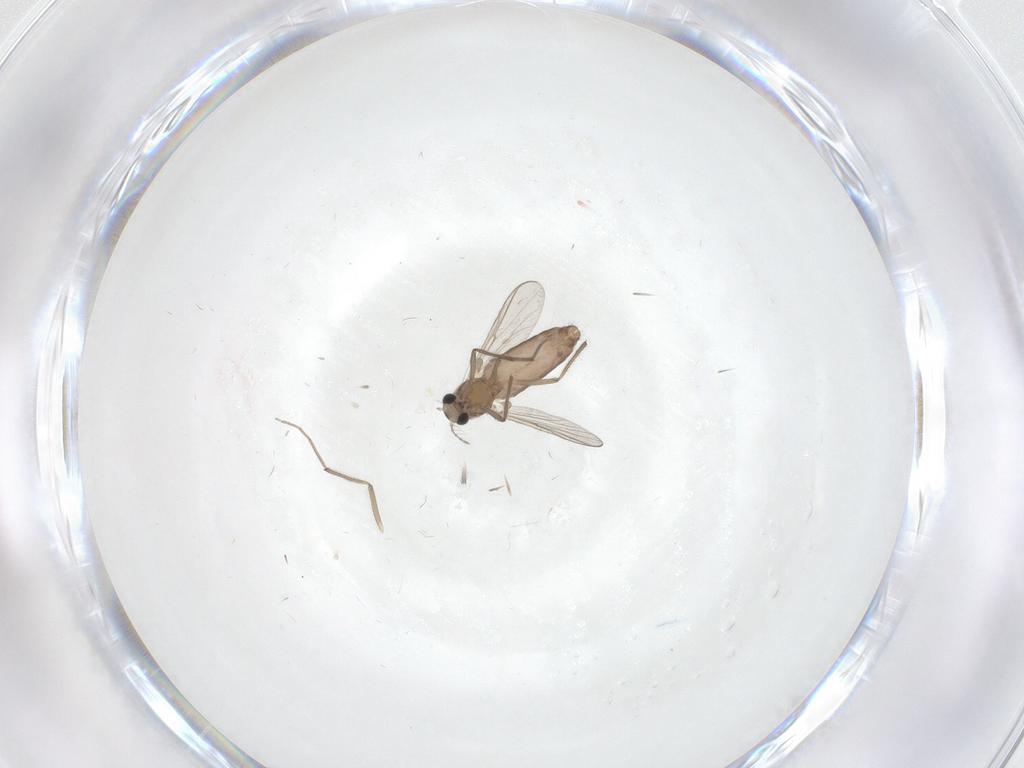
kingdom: Animalia
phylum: Arthropoda
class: Insecta
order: Diptera
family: Chironomidae
